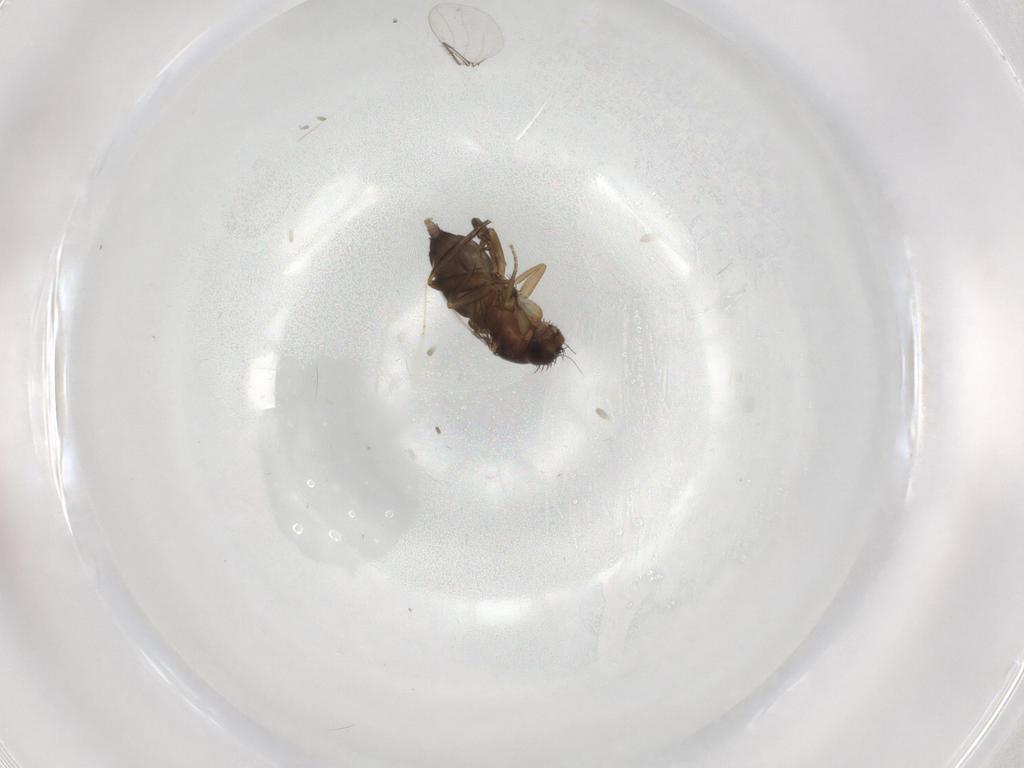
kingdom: Animalia
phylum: Arthropoda
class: Insecta
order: Diptera
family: Phoridae
